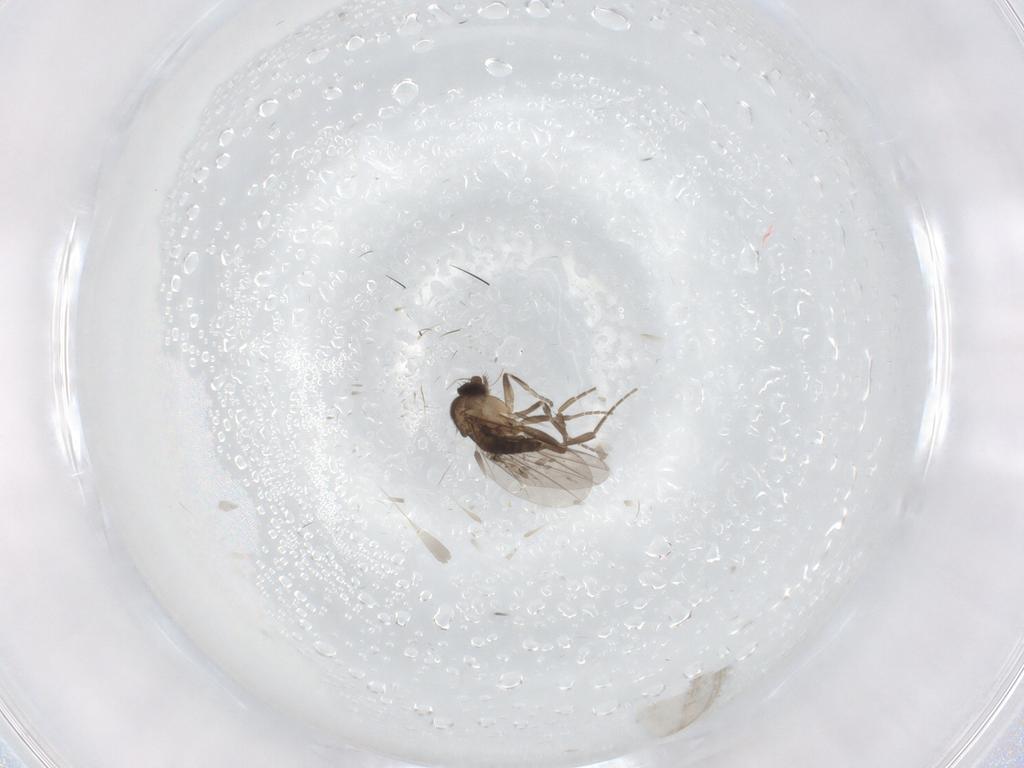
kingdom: Animalia
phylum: Arthropoda
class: Insecta
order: Diptera
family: Cecidomyiidae
